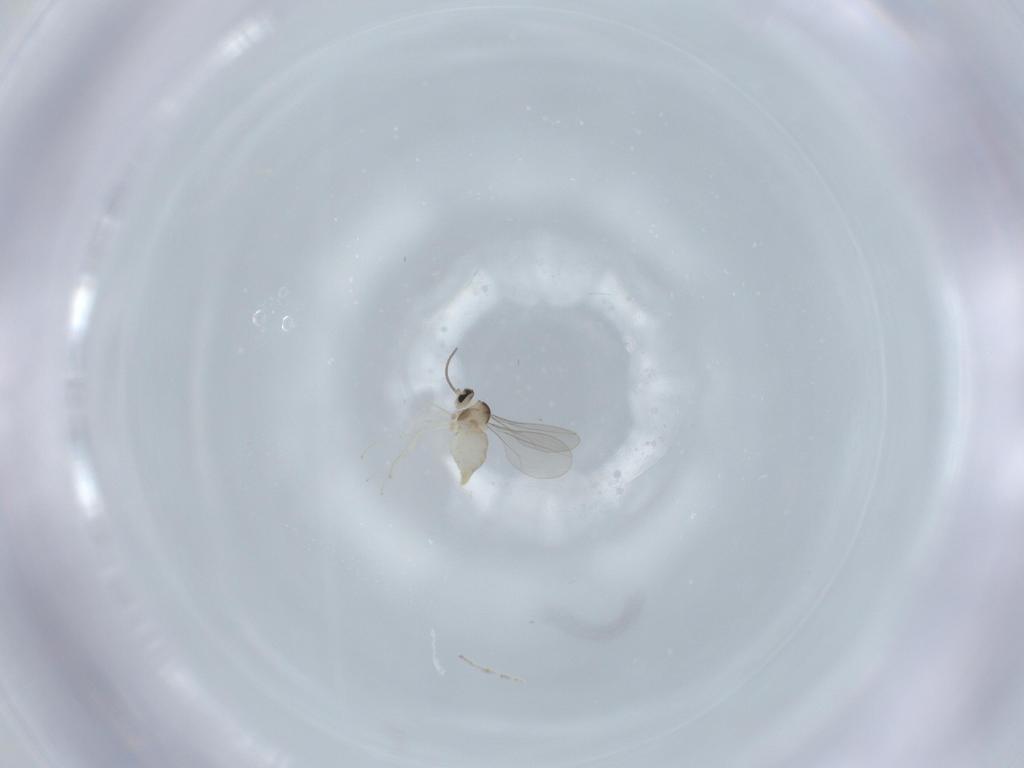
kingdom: Animalia
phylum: Arthropoda
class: Insecta
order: Diptera
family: Cecidomyiidae
